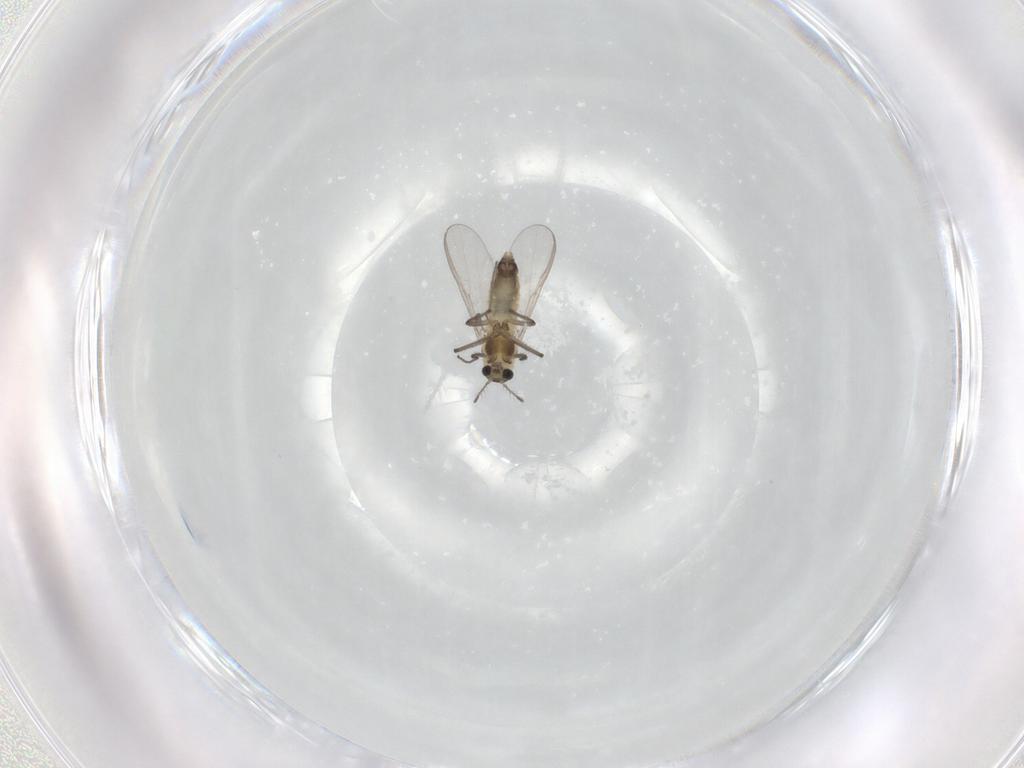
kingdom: Animalia
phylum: Arthropoda
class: Insecta
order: Diptera
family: Chironomidae
